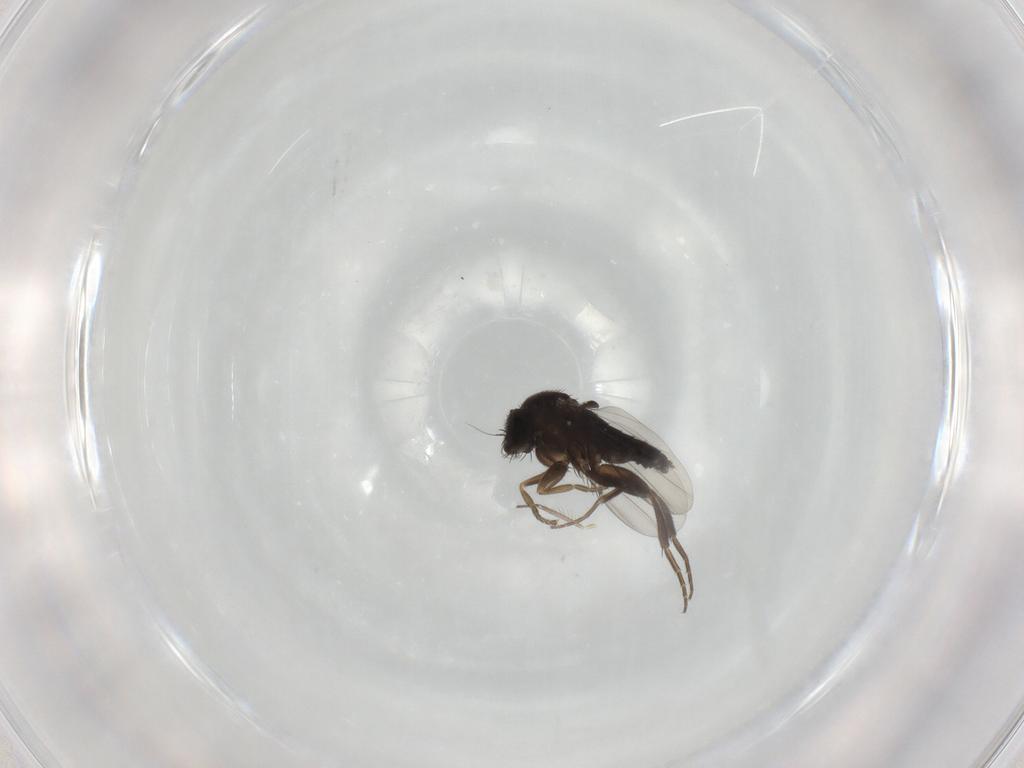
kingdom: Animalia
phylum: Arthropoda
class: Insecta
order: Diptera
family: Phoridae
